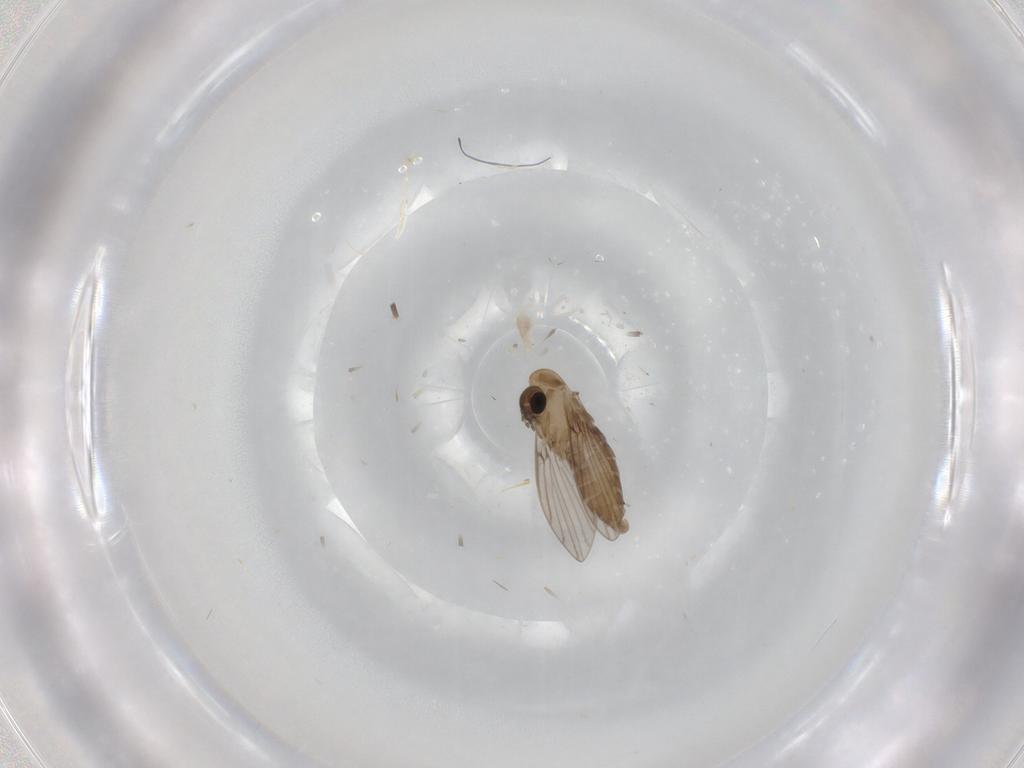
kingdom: Animalia
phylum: Arthropoda
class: Insecta
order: Diptera
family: Psychodidae
